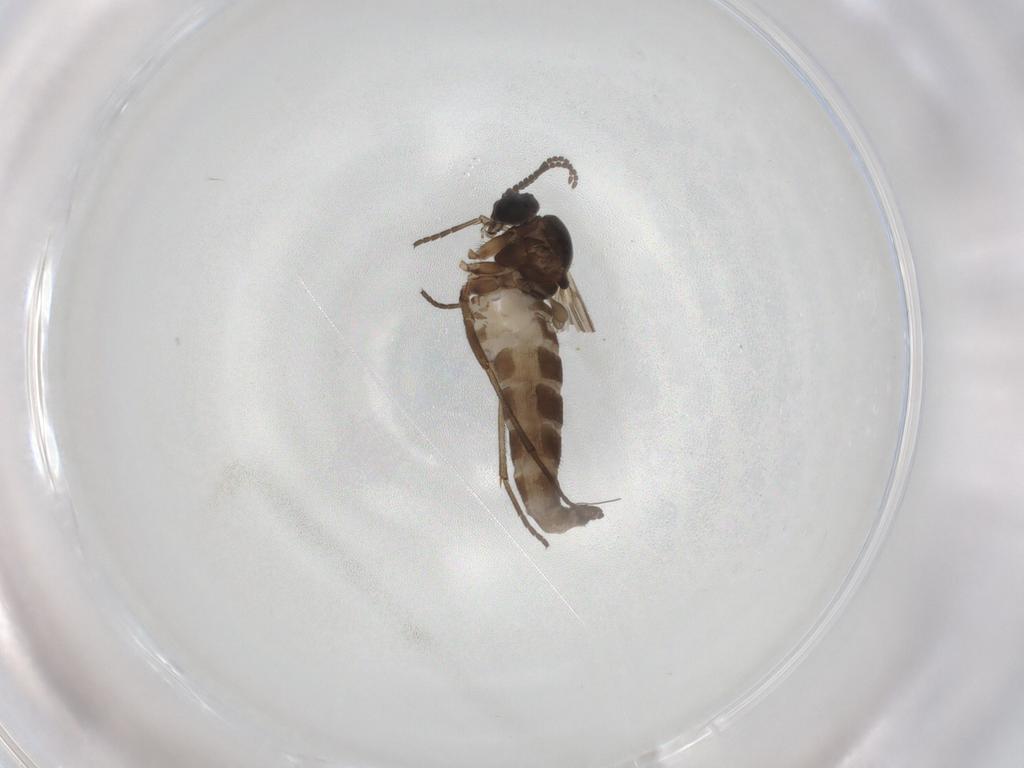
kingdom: Animalia
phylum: Arthropoda
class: Insecta
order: Diptera
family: Sciaridae
